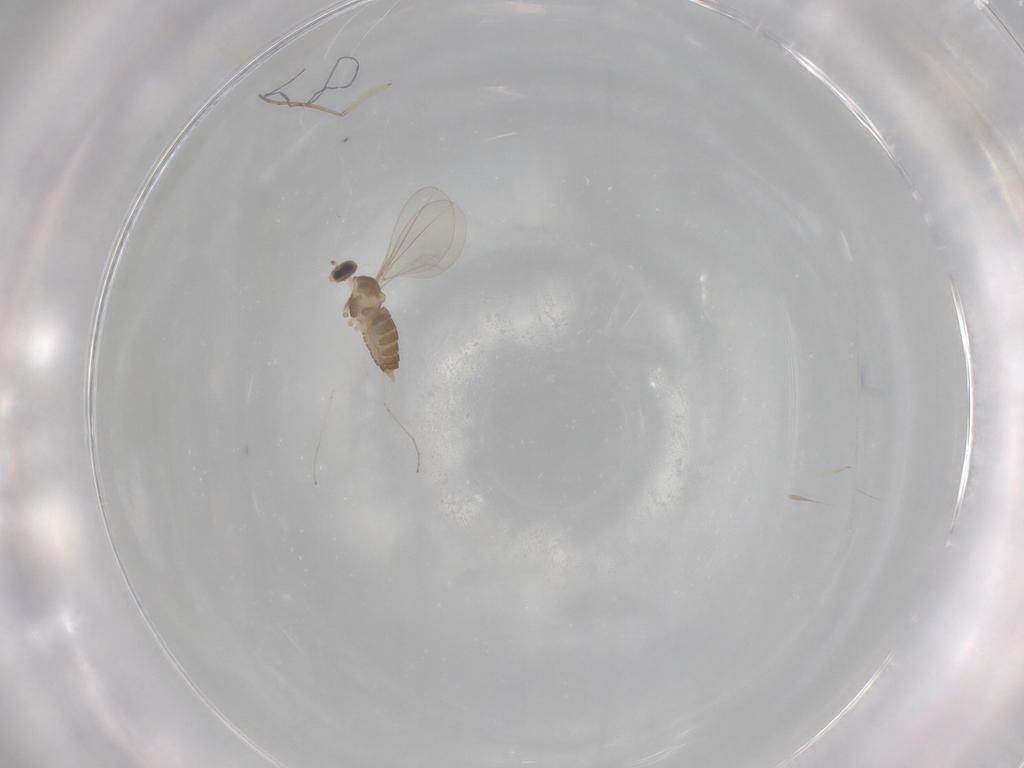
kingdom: Animalia
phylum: Arthropoda
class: Insecta
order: Diptera
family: Cecidomyiidae
